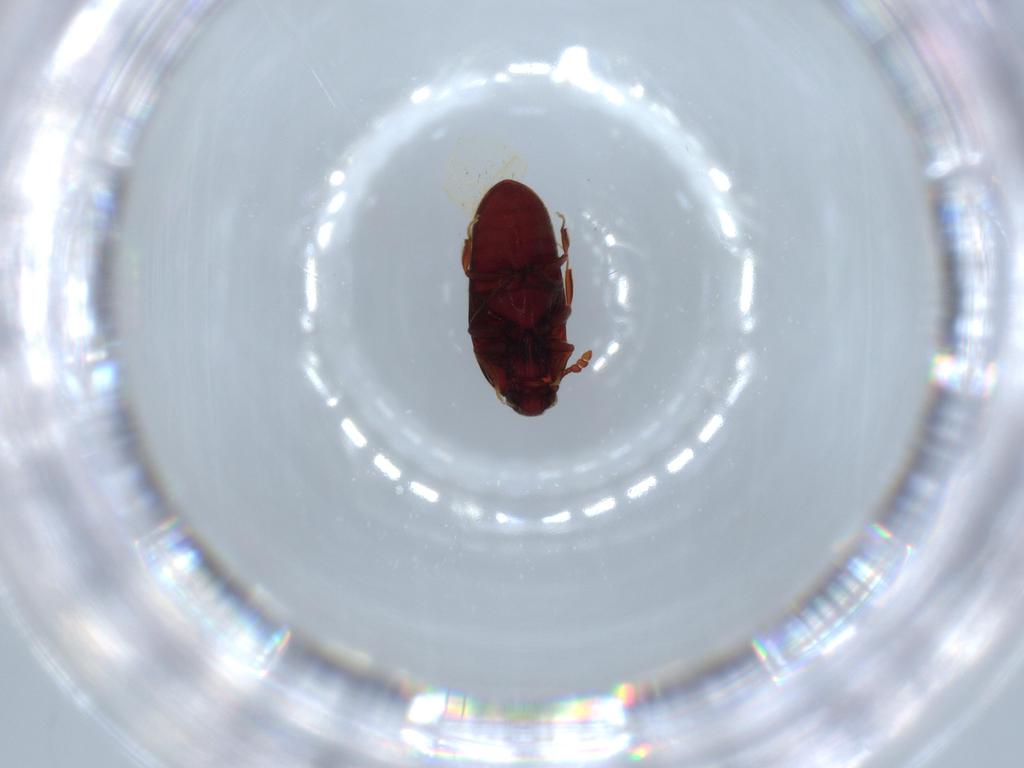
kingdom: Animalia
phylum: Arthropoda
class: Insecta
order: Coleoptera
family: Throscidae
